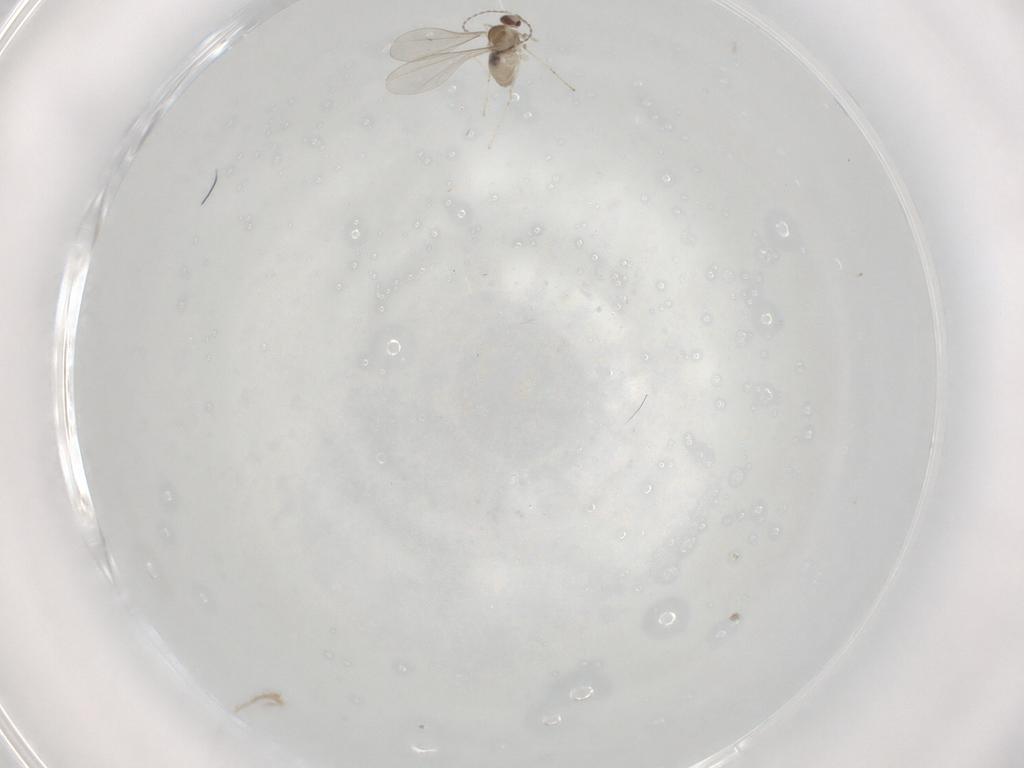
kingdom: Animalia
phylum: Arthropoda
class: Insecta
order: Diptera
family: Cecidomyiidae
